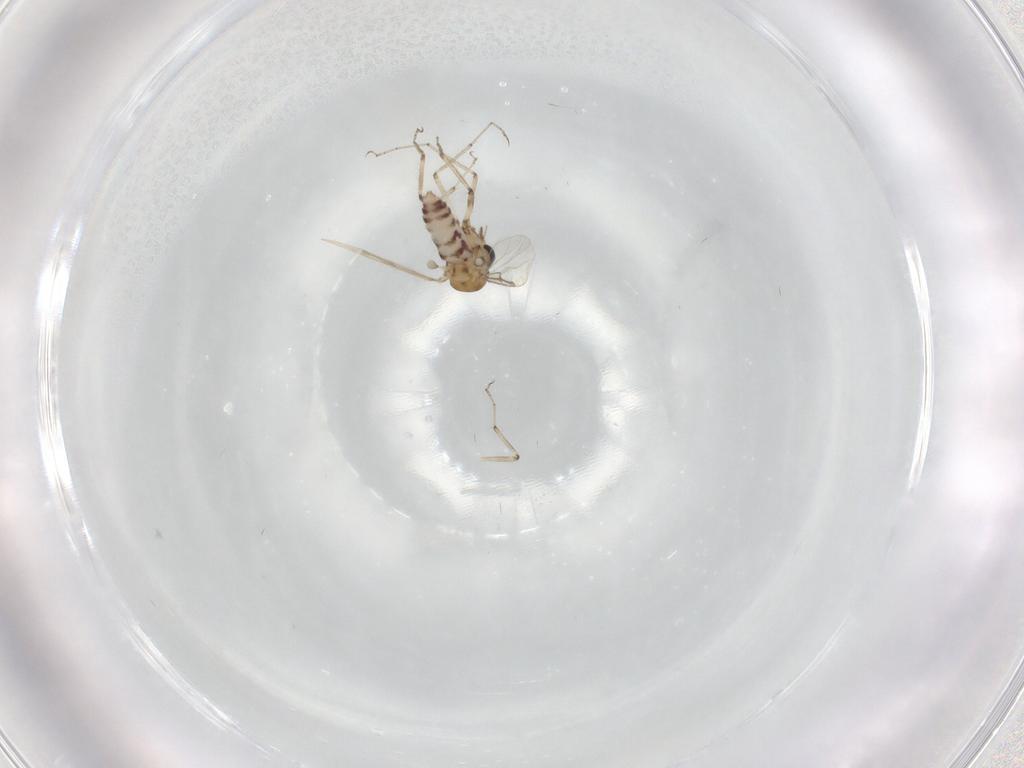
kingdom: Animalia
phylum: Arthropoda
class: Insecta
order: Diptera
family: Ceratopogonidae
